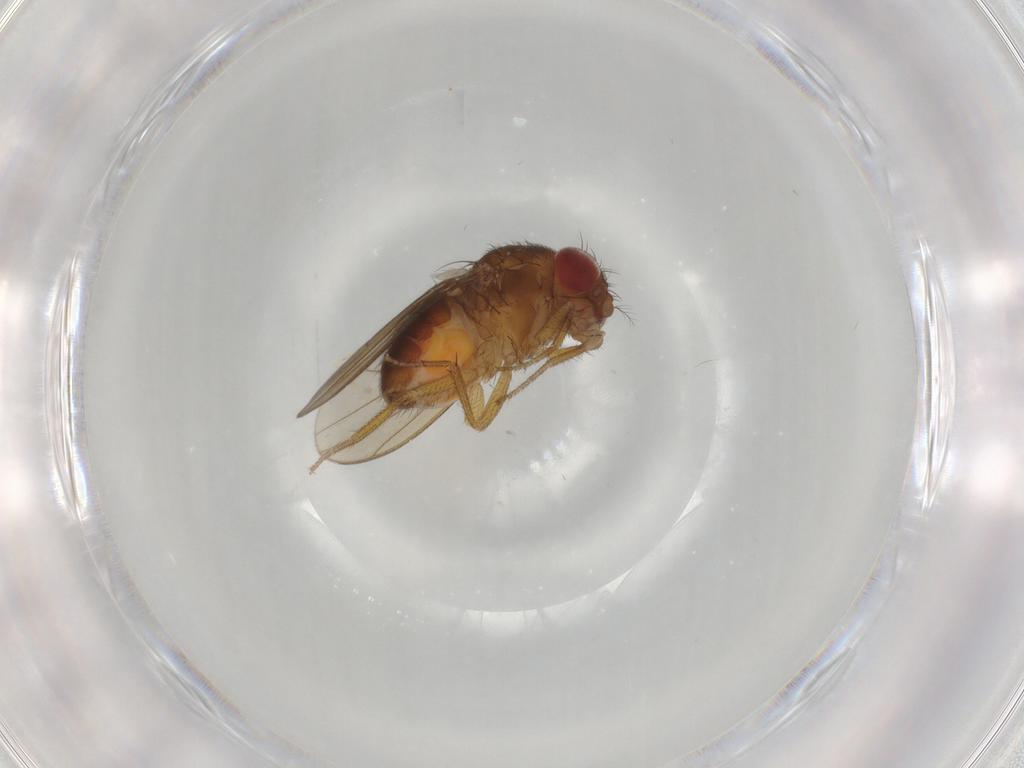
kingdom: Animalia
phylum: Arthropoda
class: Insecta
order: Diptera
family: Drosophilidae
